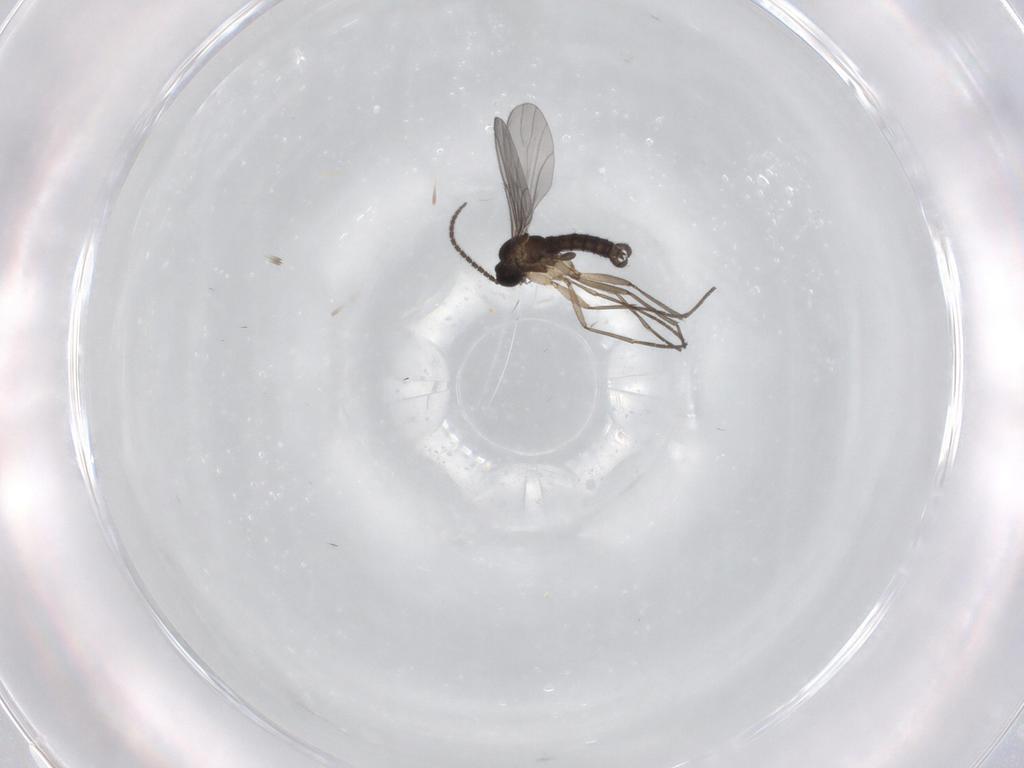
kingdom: Animalia
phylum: Arthropoda
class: Insecta
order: Diptera
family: Sciaridae
